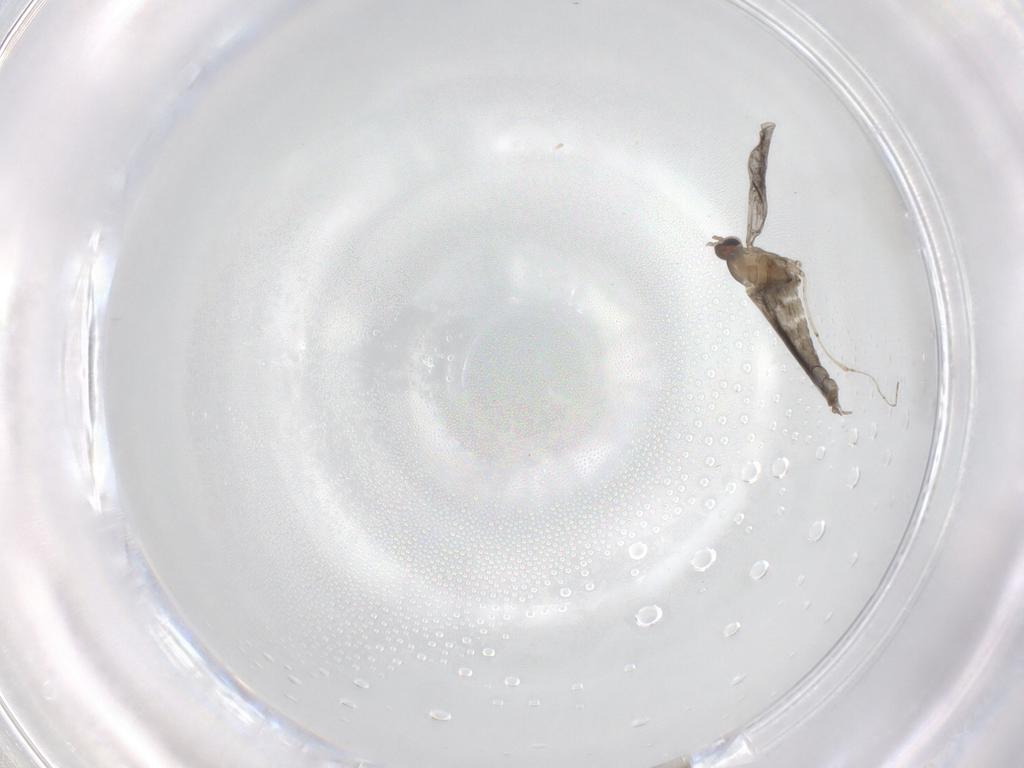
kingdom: Animalia
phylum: Arthropoda
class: Insecta
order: Diptera
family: Cecidomyiidae
